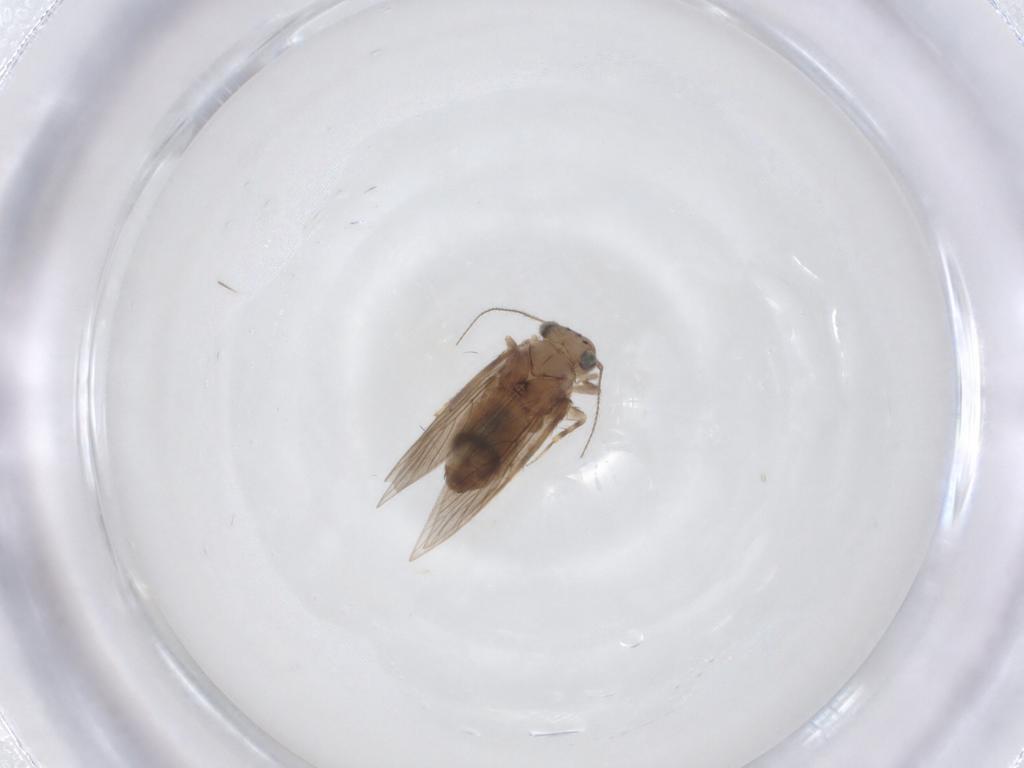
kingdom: Animalia
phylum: Arthropoda
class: Insecta
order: Psocodea
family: Lepidopsocidae
